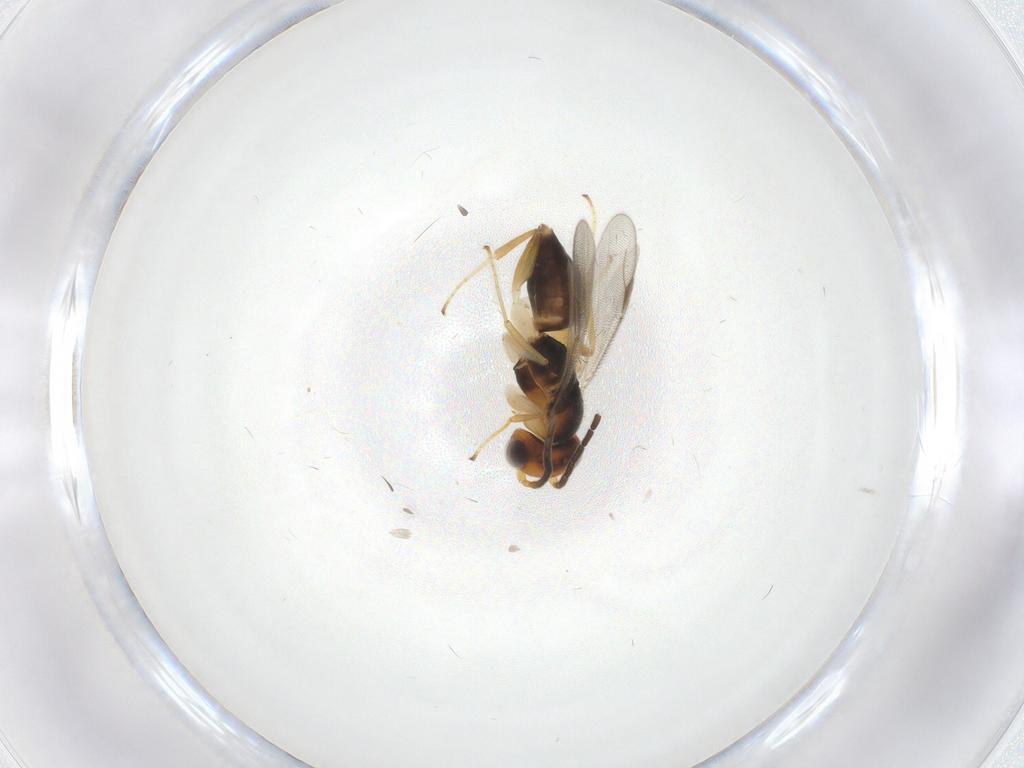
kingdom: Animalia
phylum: Arthropoda
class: Insecta
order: Hymenoptera
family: Dryinidae
